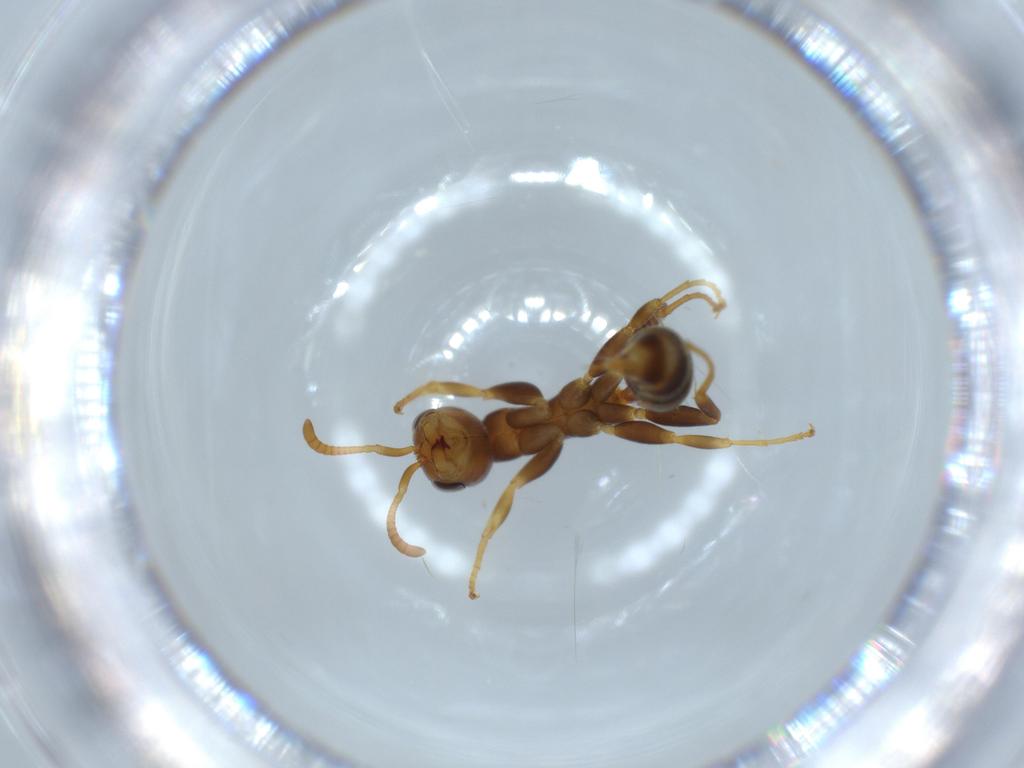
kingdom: Animalia
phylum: Arthropoda
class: Insecta
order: Hymenoptera
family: Formicidae
